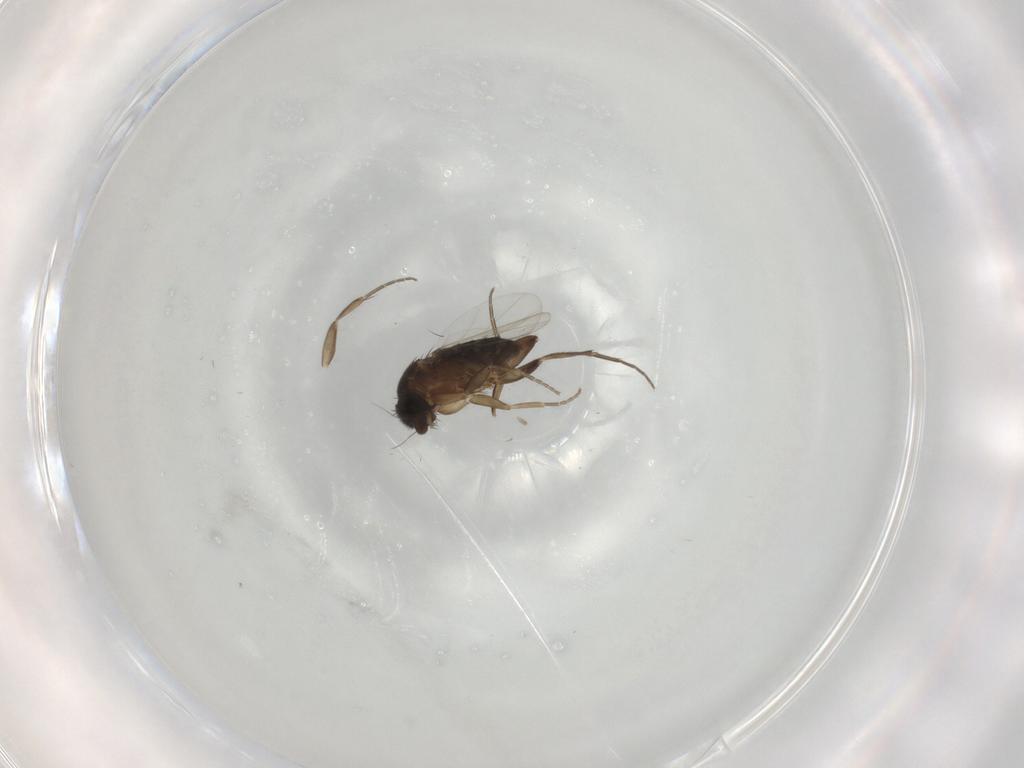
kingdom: Animalia
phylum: Arthropoda
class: Insecta
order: Diptera
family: Phoridae
